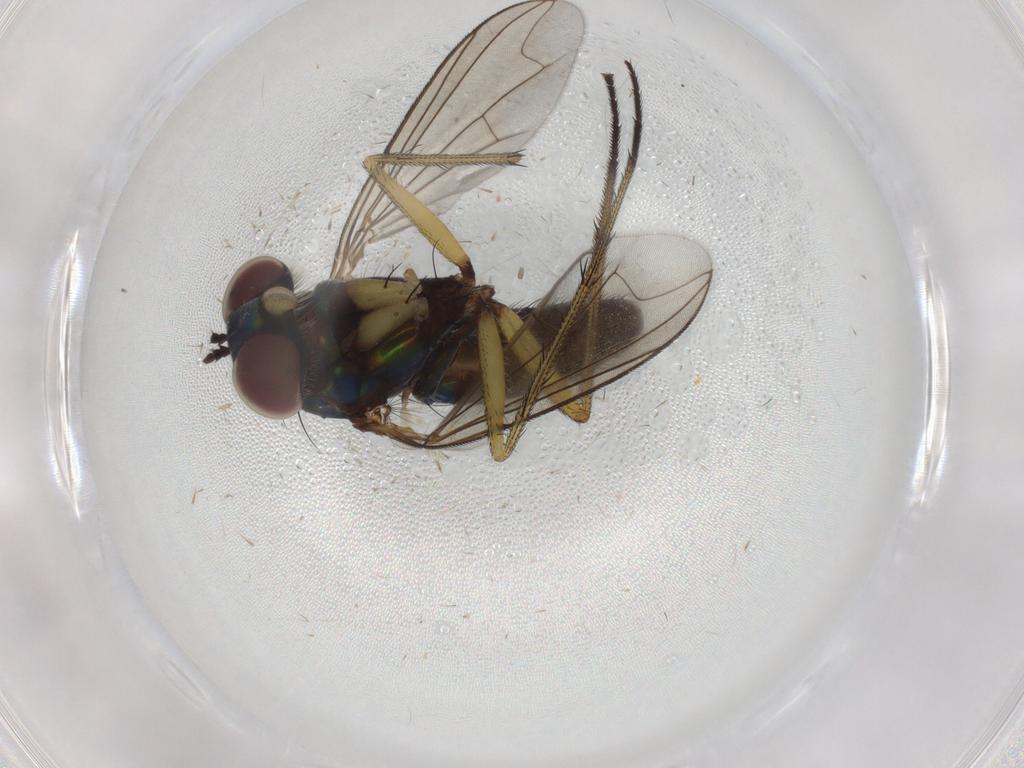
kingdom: Animalia
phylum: Arthropoda
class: Insecta
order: Diptera
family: Dolichopodidae
